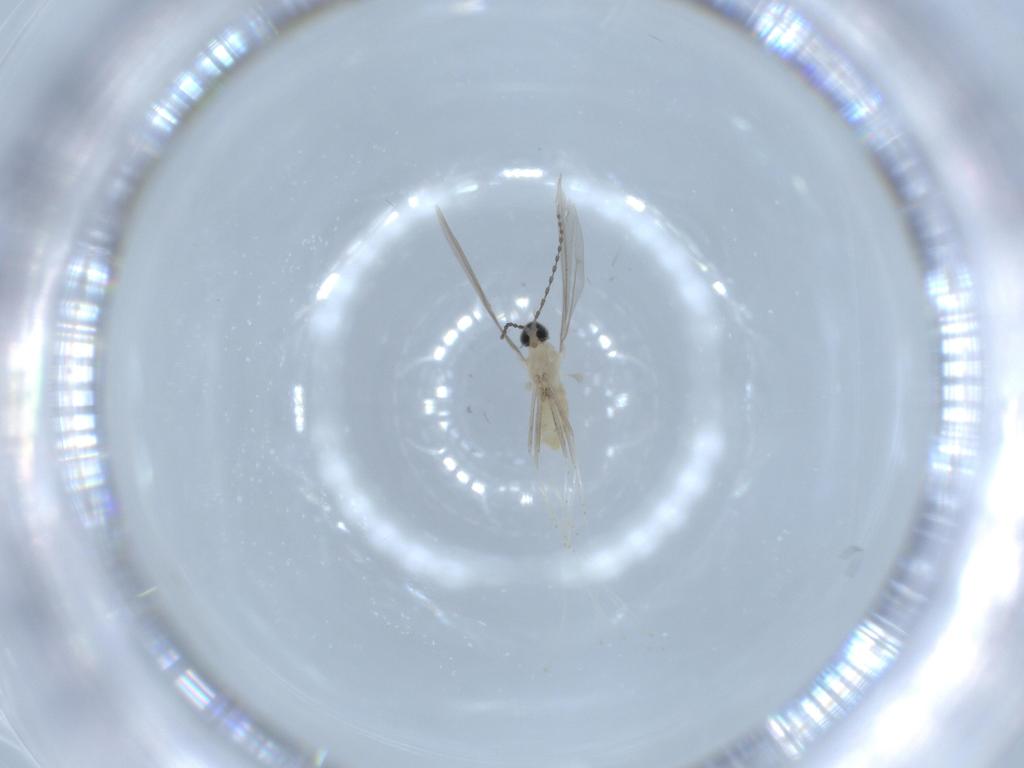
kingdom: Animalia
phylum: Arthropoda
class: Insecta
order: Diptera
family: Cecidomyiidae
